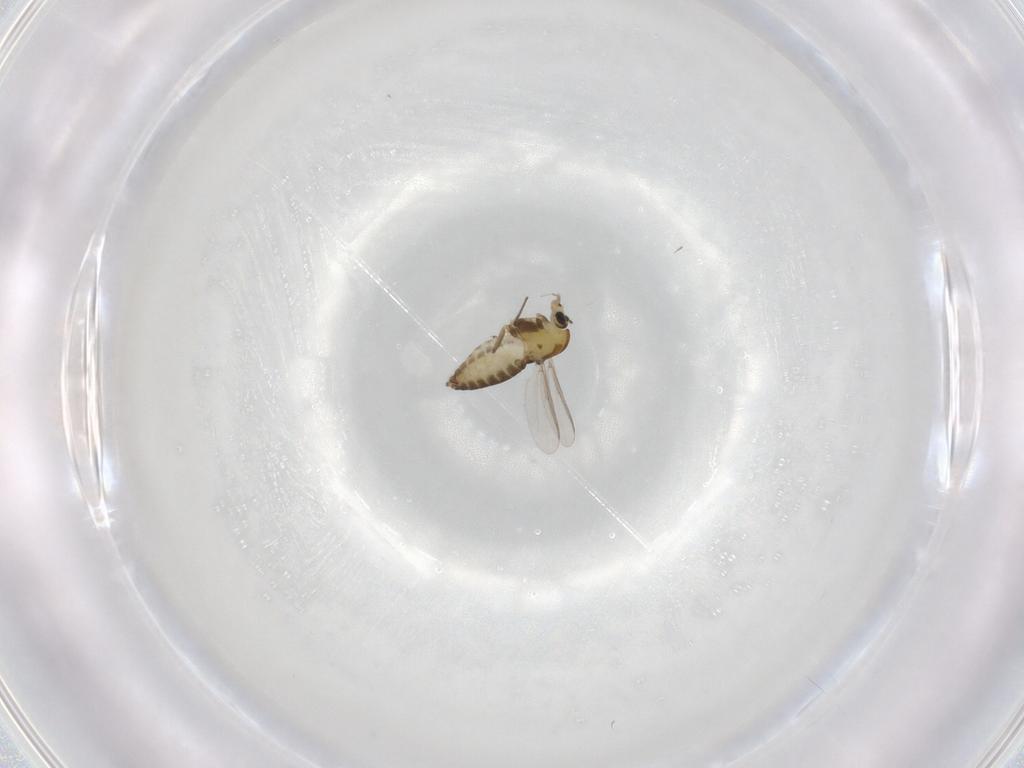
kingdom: Animalia
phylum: Arthropoda
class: Insecta
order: Diptera
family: Chironomidae
